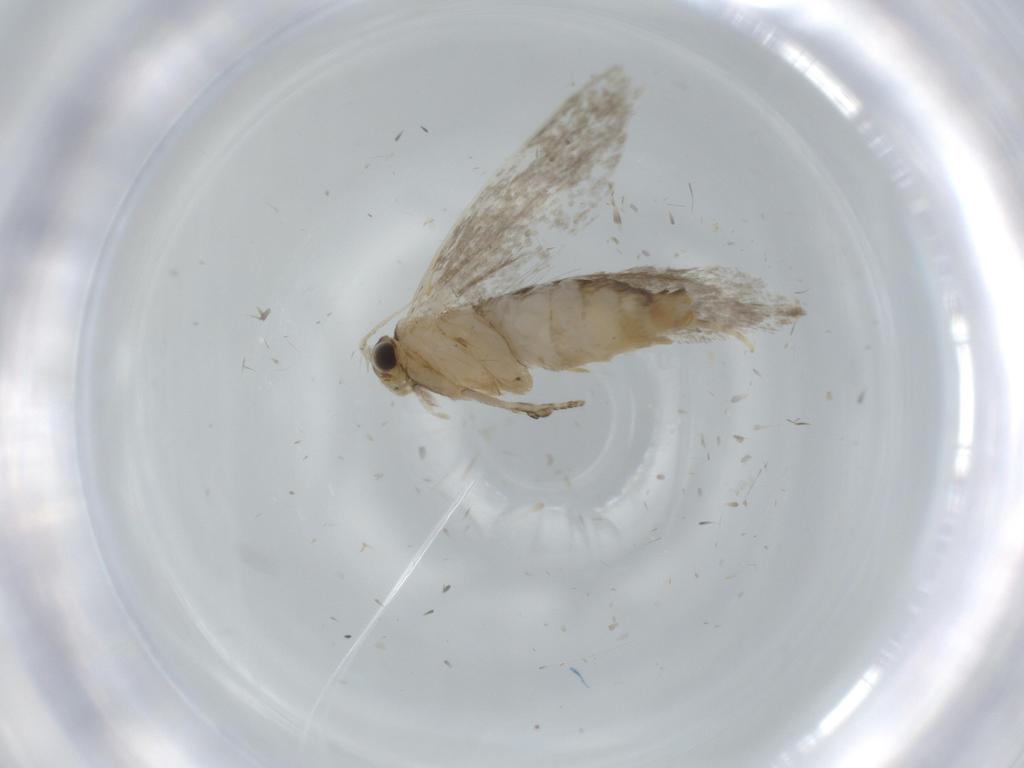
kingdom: Animalia
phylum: Arthropoda
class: Insecta
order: Lepidoptera
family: Tineidae
